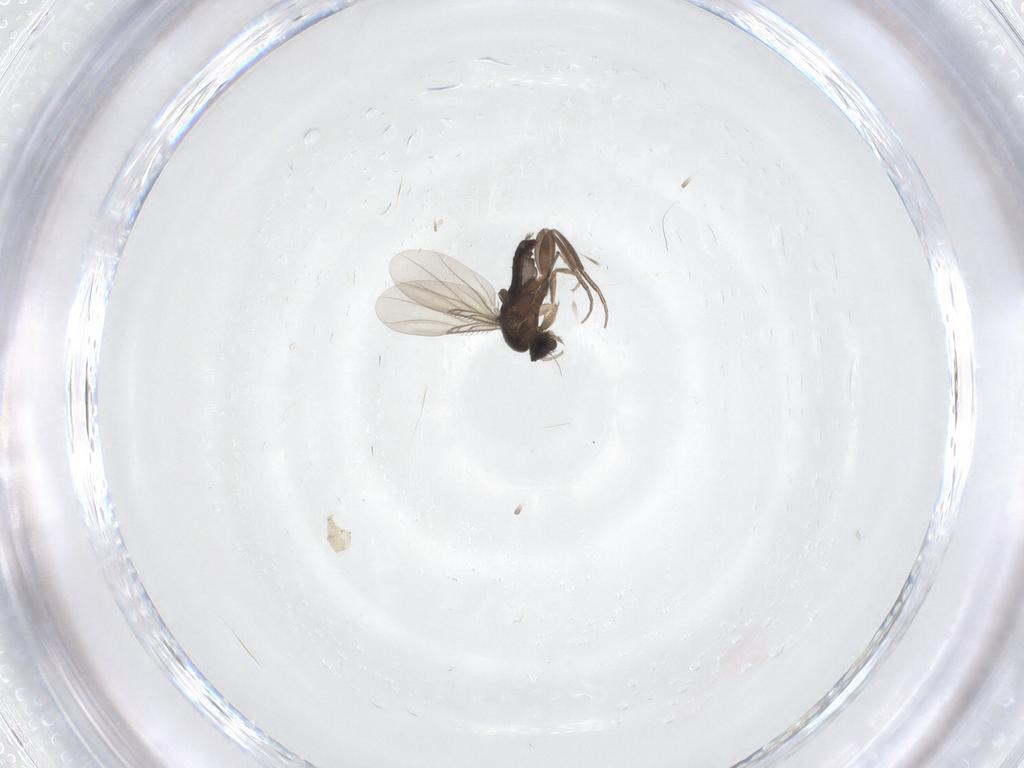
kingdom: Animalia
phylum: Arthropoda
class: Insecta
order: Diptera
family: Phoridae
